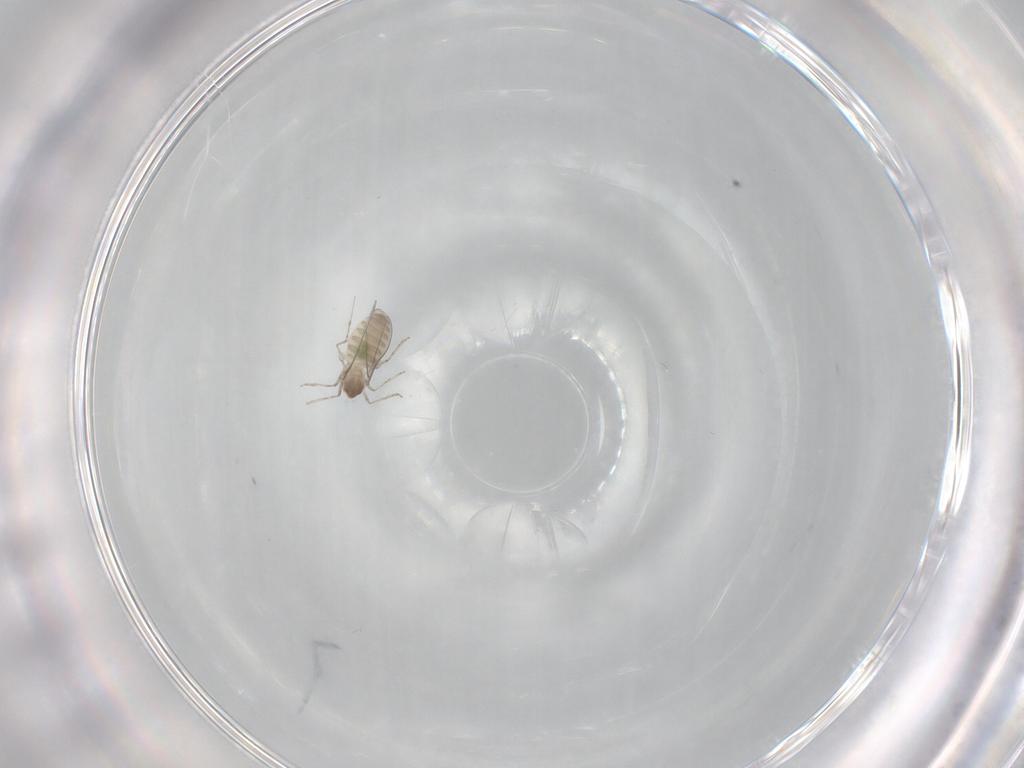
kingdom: Animalia
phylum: Arthropoda
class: Insecta
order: Diptera
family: Cecidomyiidae
